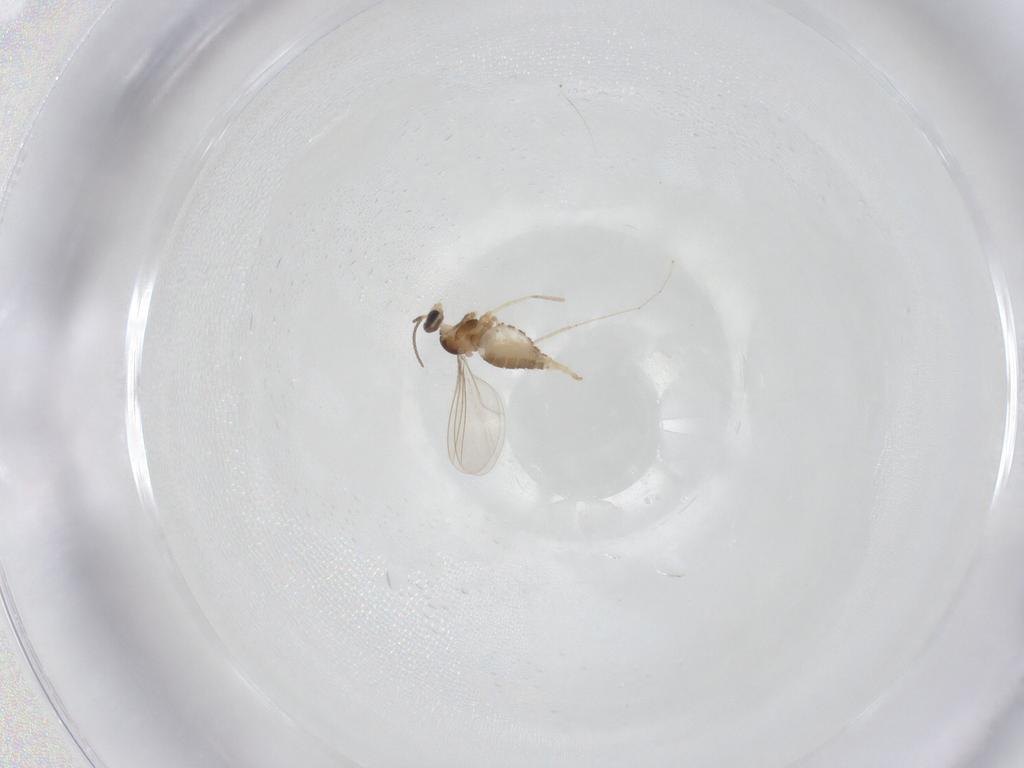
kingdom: Animalia
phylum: Arthropoda
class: Insecta
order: Diptera
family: Cecidomyiidae
